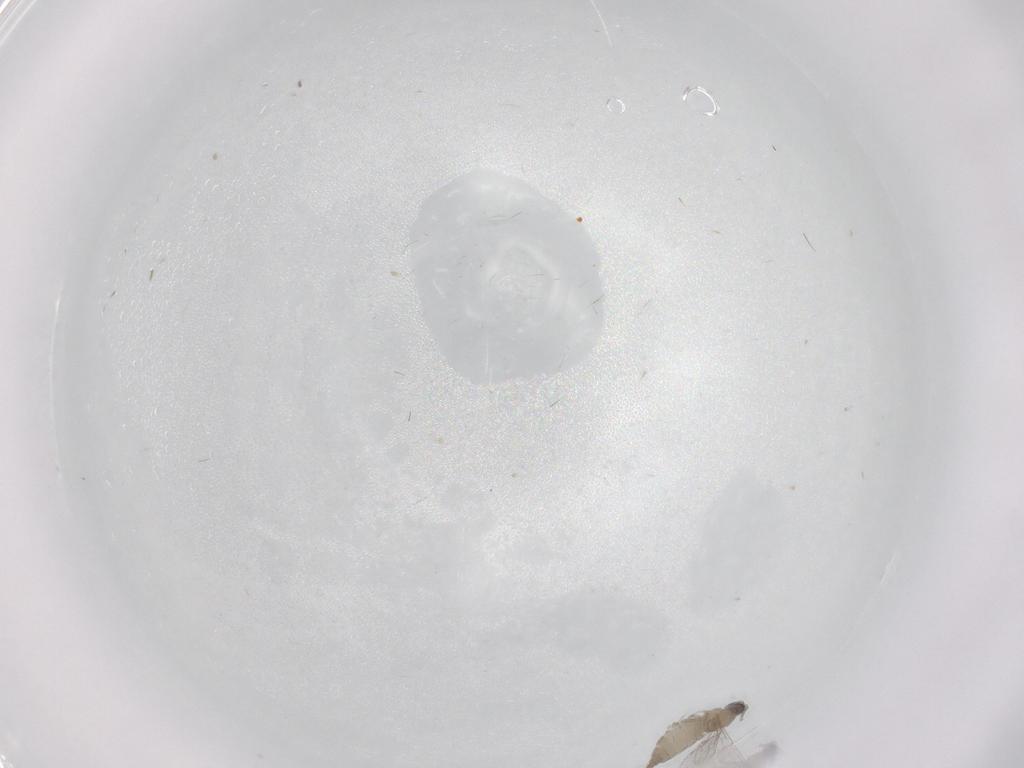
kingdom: Animalia
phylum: Arthropoda
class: Insecta
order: Diptera
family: Cecidomyiidae
